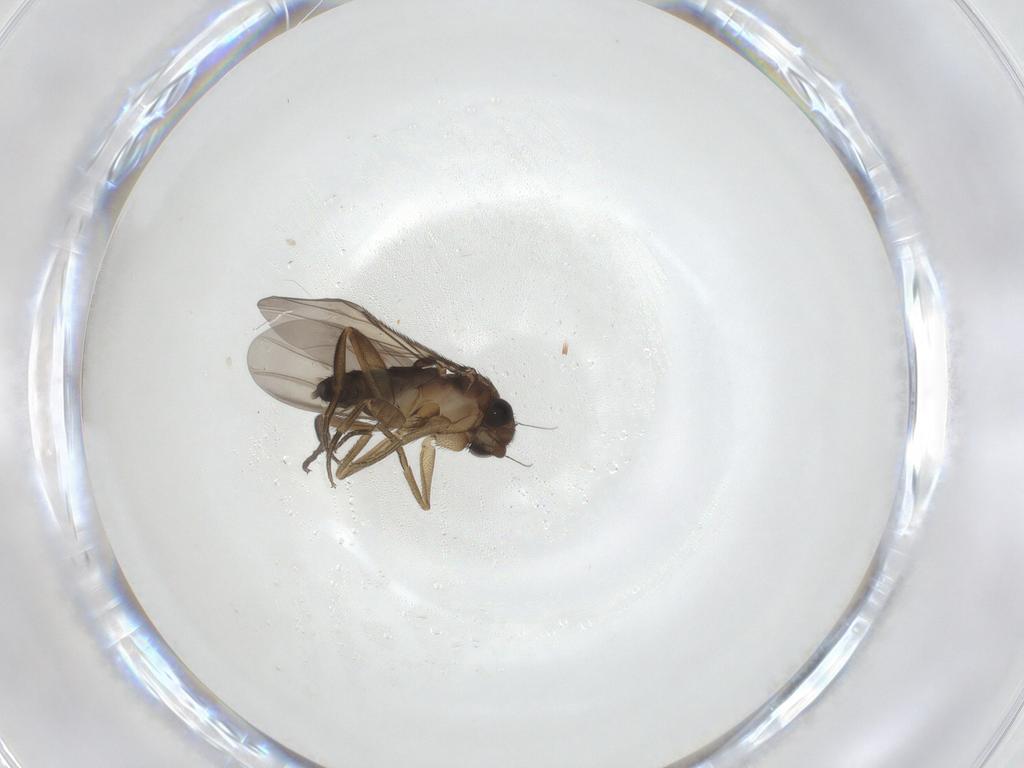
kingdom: Animalia
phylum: Arthropoda
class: Insecta
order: Diptera
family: Phoridae
